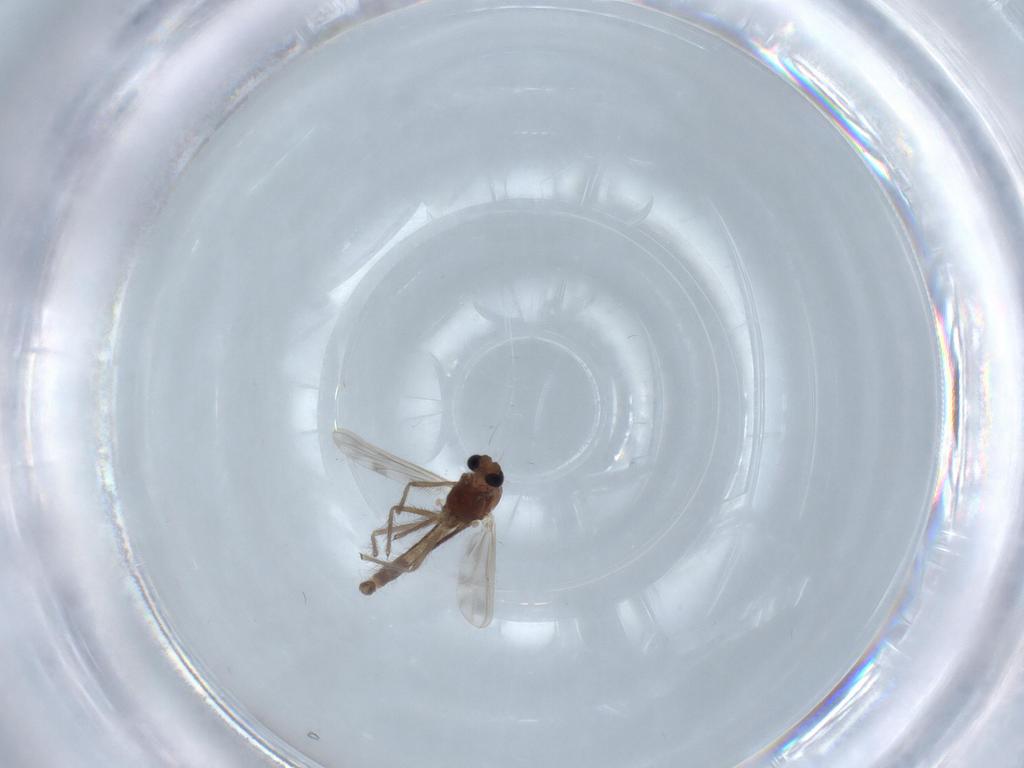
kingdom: Animalia
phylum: Arthropoda
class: Insecta
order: Diptera
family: Chironomidae
